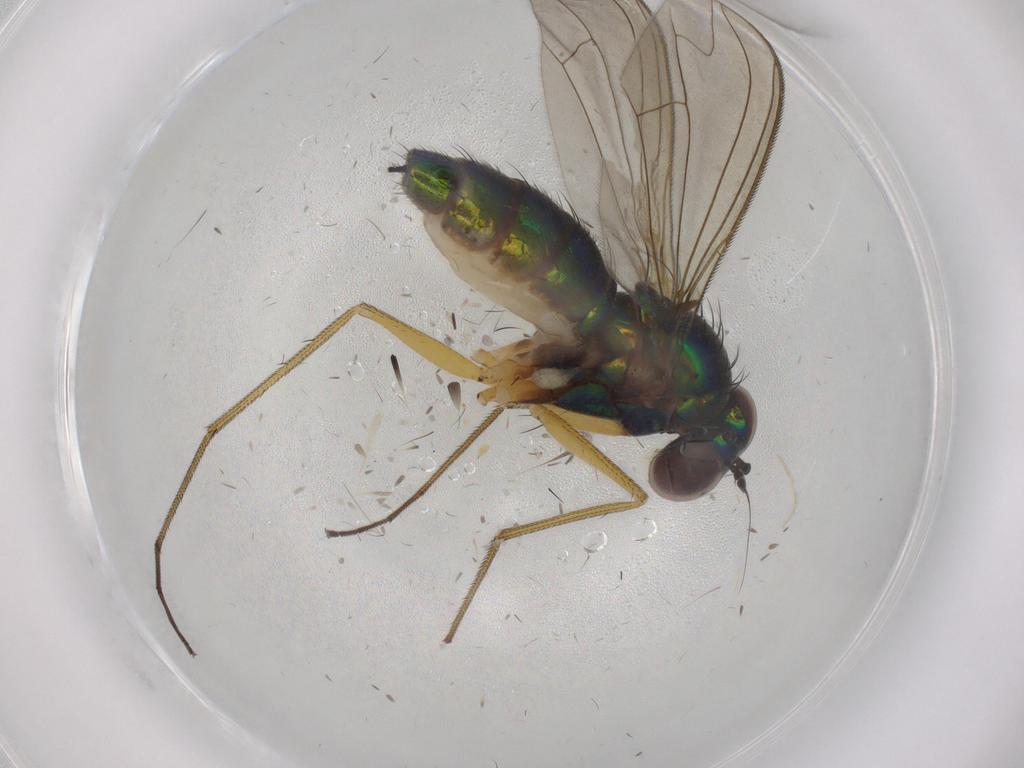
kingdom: Animalia
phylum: Arthropoda
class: Insecta
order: Diptera
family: Dolichopodidae
